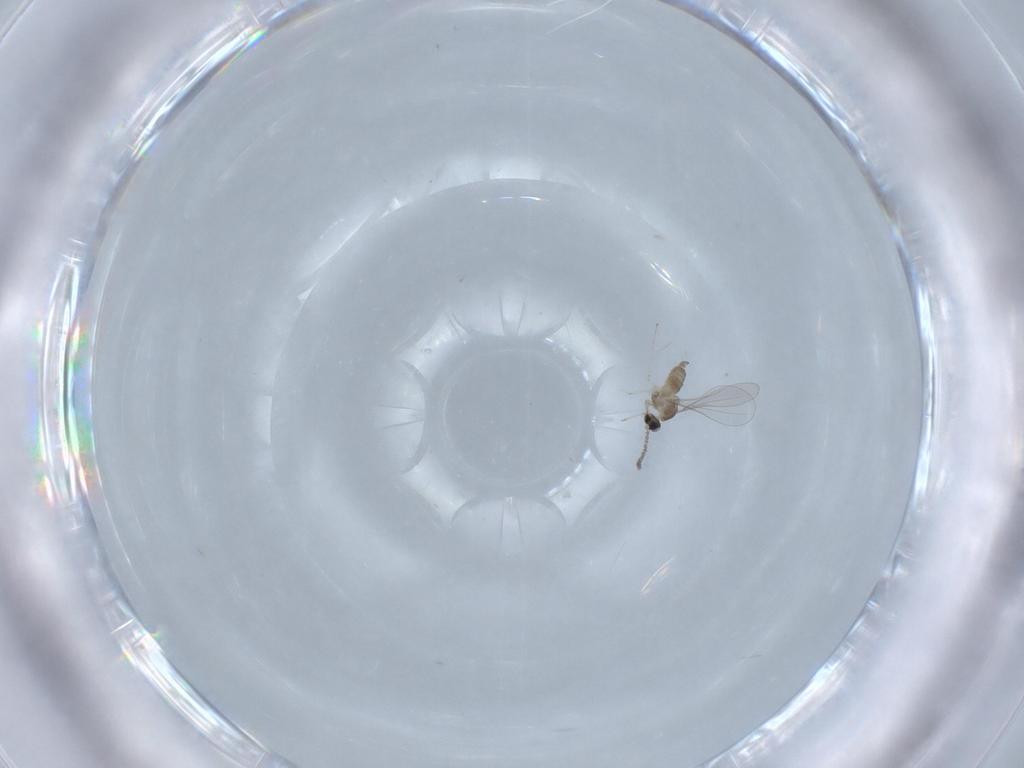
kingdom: Animalia
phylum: Arthropoda
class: Insecta
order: Diptera
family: Cecidomyiidae
